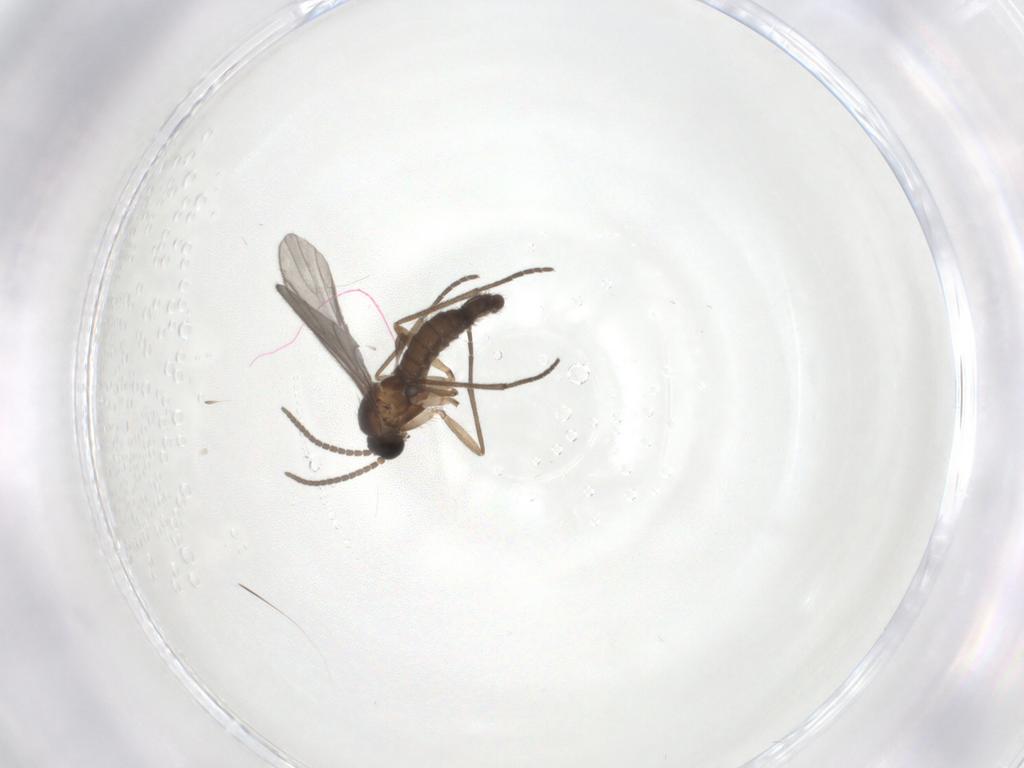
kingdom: Animalia
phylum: Arthropoda
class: Insecta
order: Diptera
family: Sciaridae
